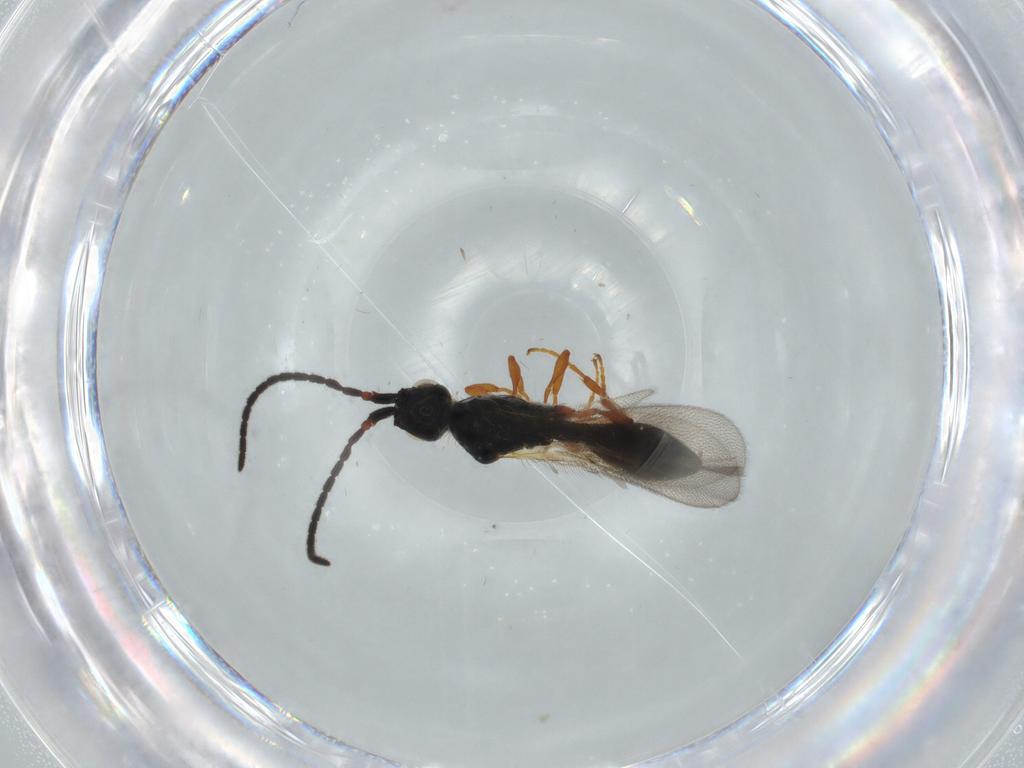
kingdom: Animalia
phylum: Arthropoda
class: Insecta
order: Hymenoptera
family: Diapriidae
